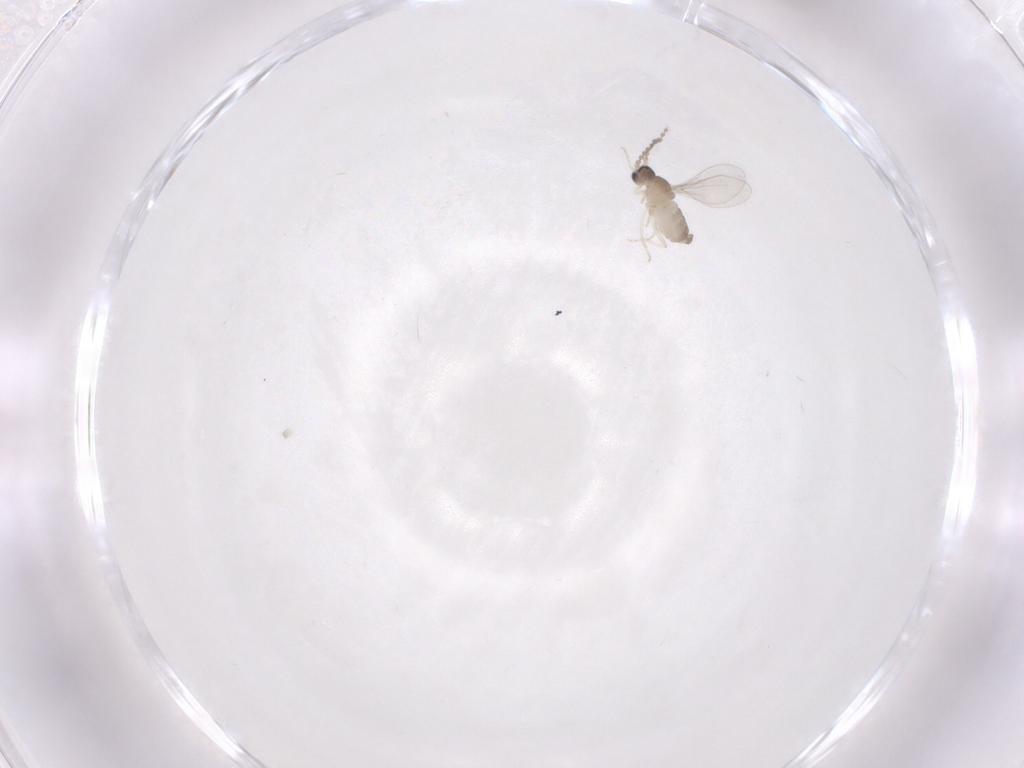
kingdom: Animalia
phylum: Arthropoda
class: Insecta
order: Diptera
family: Cecidomyiidae
